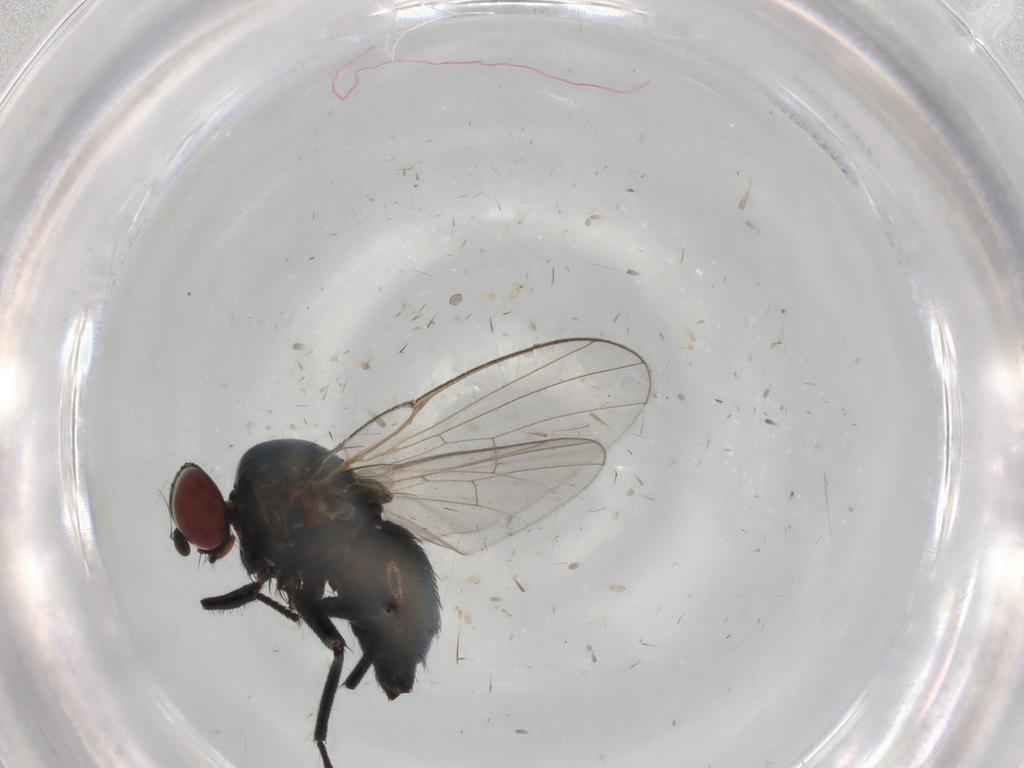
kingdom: Animalia
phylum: Arthropoda
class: Insecta
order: Diptera
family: Agromyzidae
